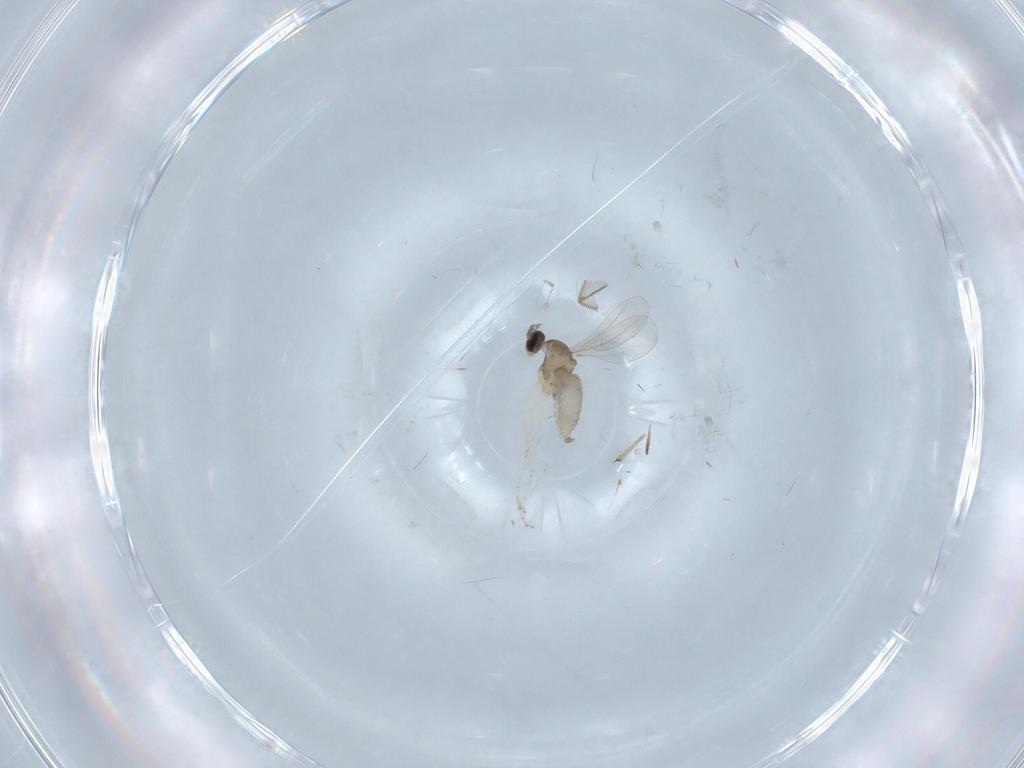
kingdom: Animalia
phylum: Arthropoda
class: Insecta
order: Diptera
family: Cecidomyiidae
